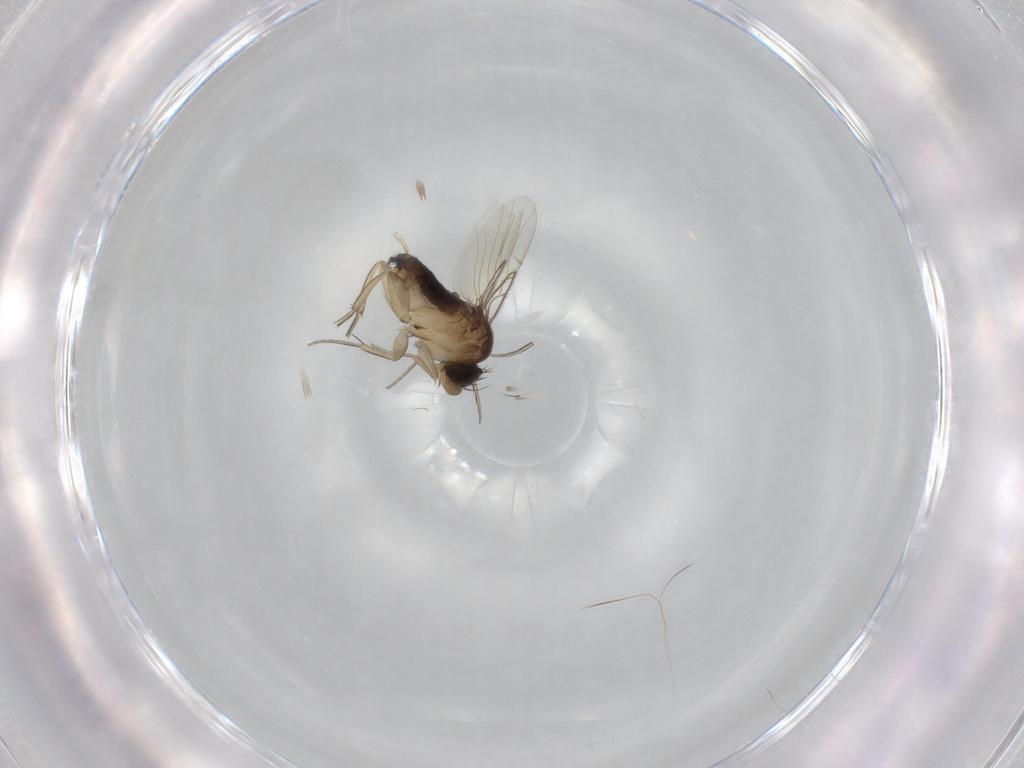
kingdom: Animalia
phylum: Arthropoda
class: Insecta
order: Diptera
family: Phoridae
